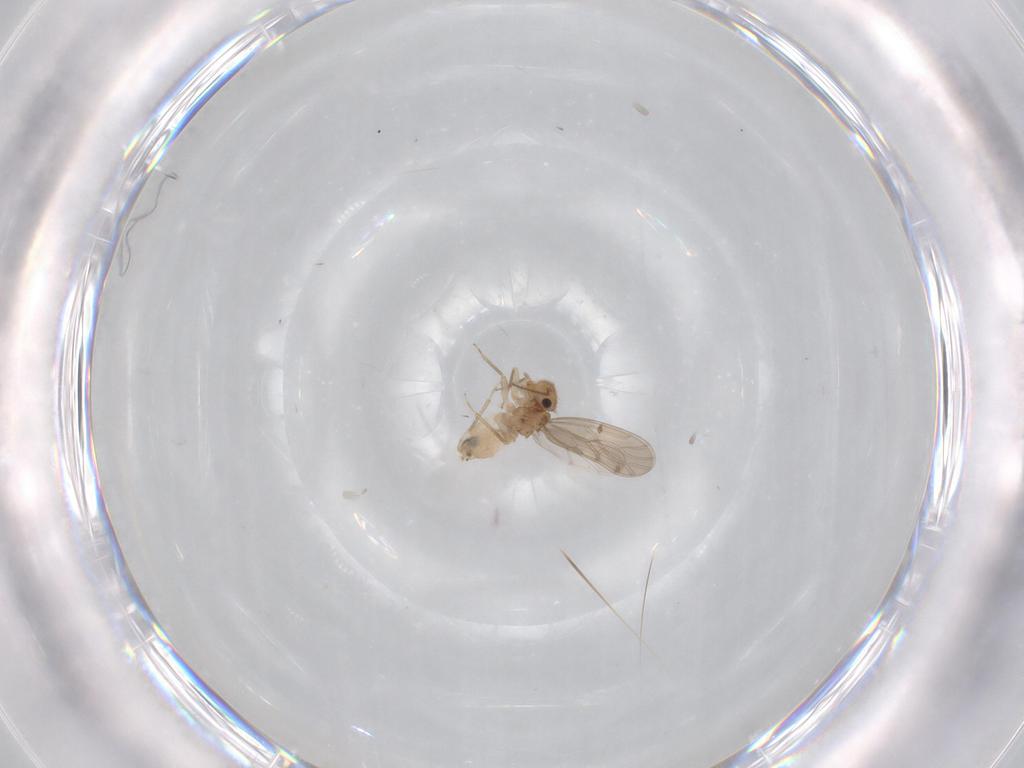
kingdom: Animalia
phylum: Arthropoda
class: Insecta
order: Psocodea
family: Ectopsocidae
